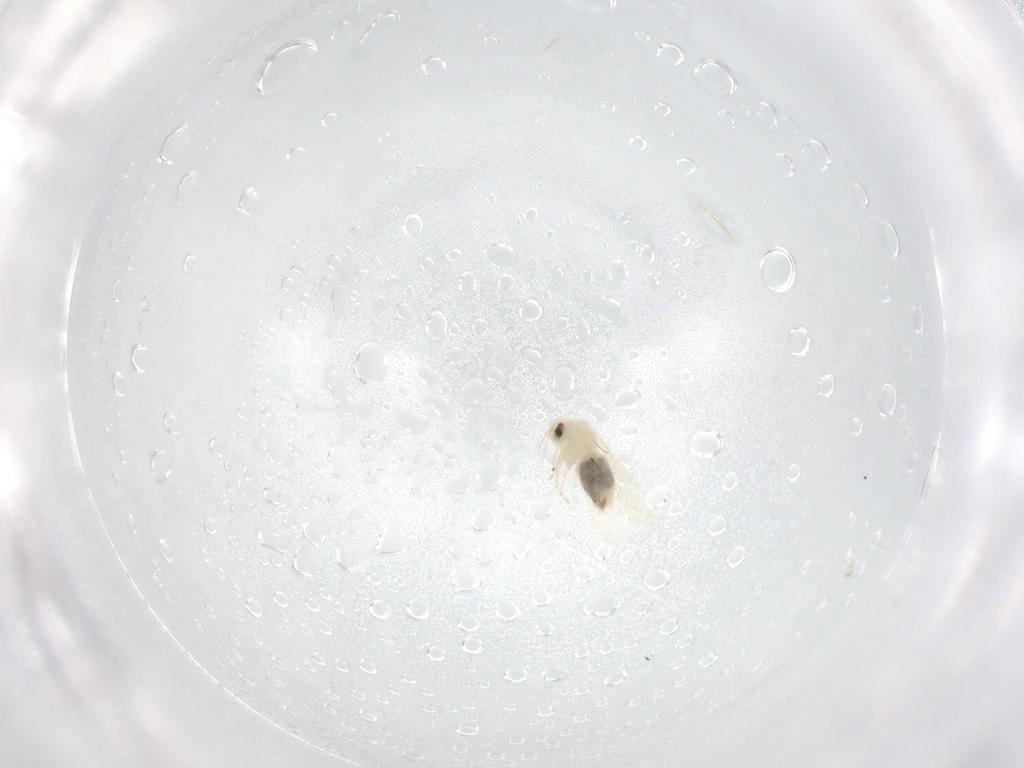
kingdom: Animalia
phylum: Arthropoda
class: Insecta
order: Hemiptera
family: Aleyrodidae
